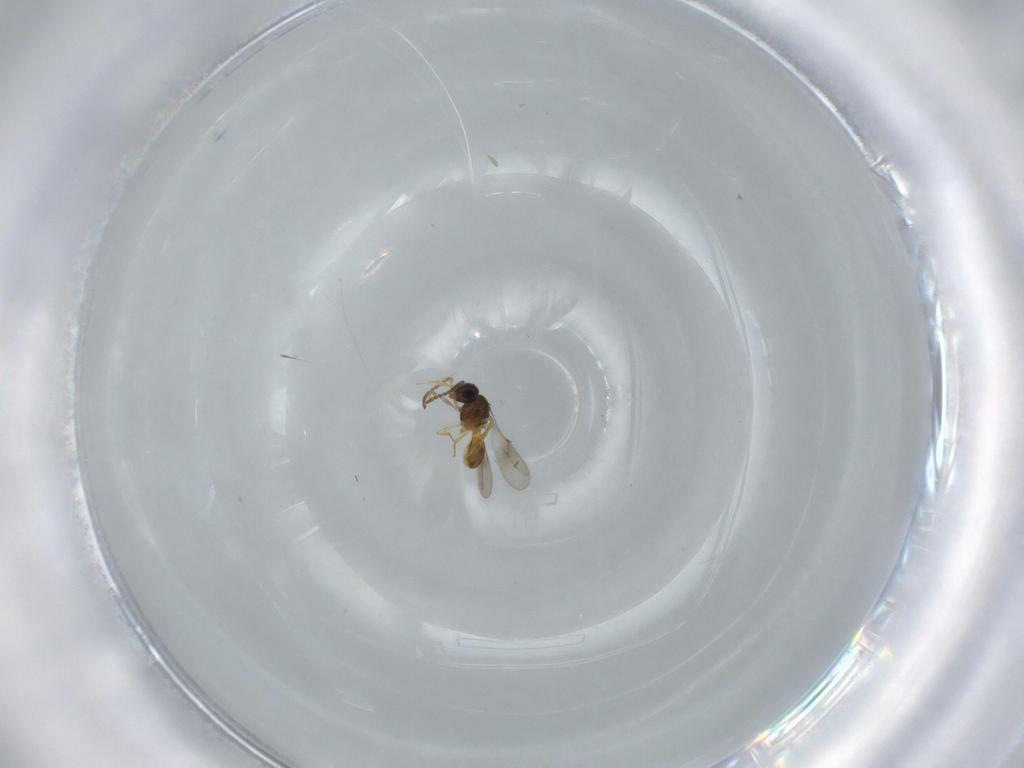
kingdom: Animalia
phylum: Arthropoda
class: Insecta
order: Hymenoptera
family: Scelionidae
